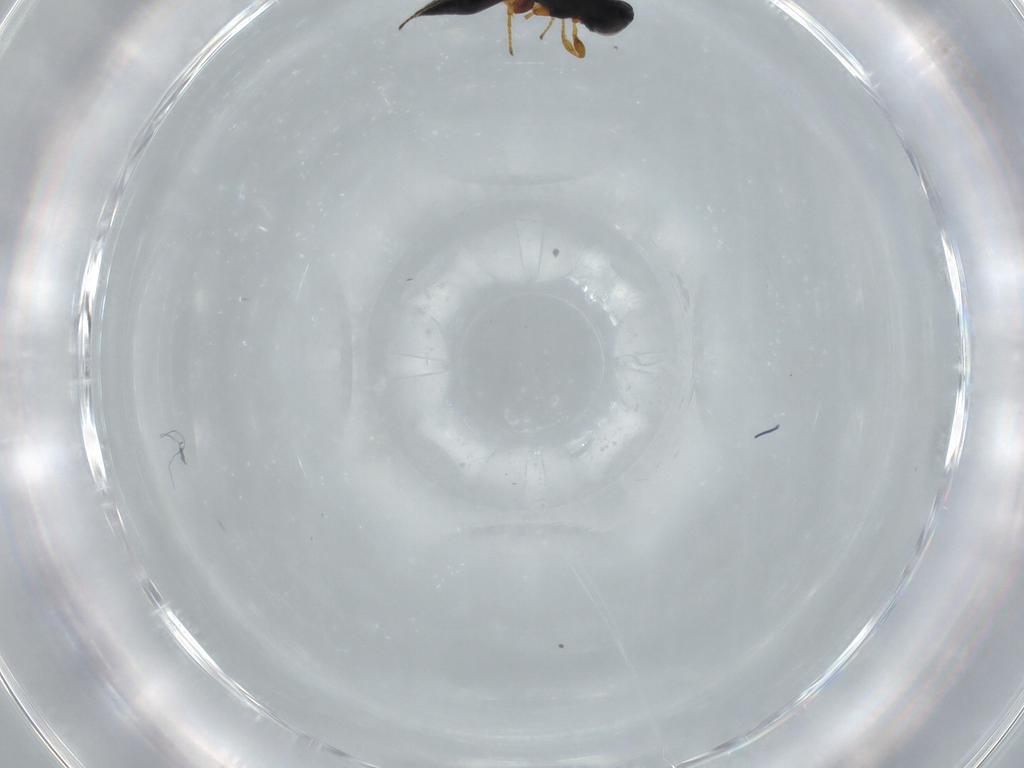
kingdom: Animalia
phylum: Arthropoda
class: Insecta
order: Hymenoptera
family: Platygastridae
